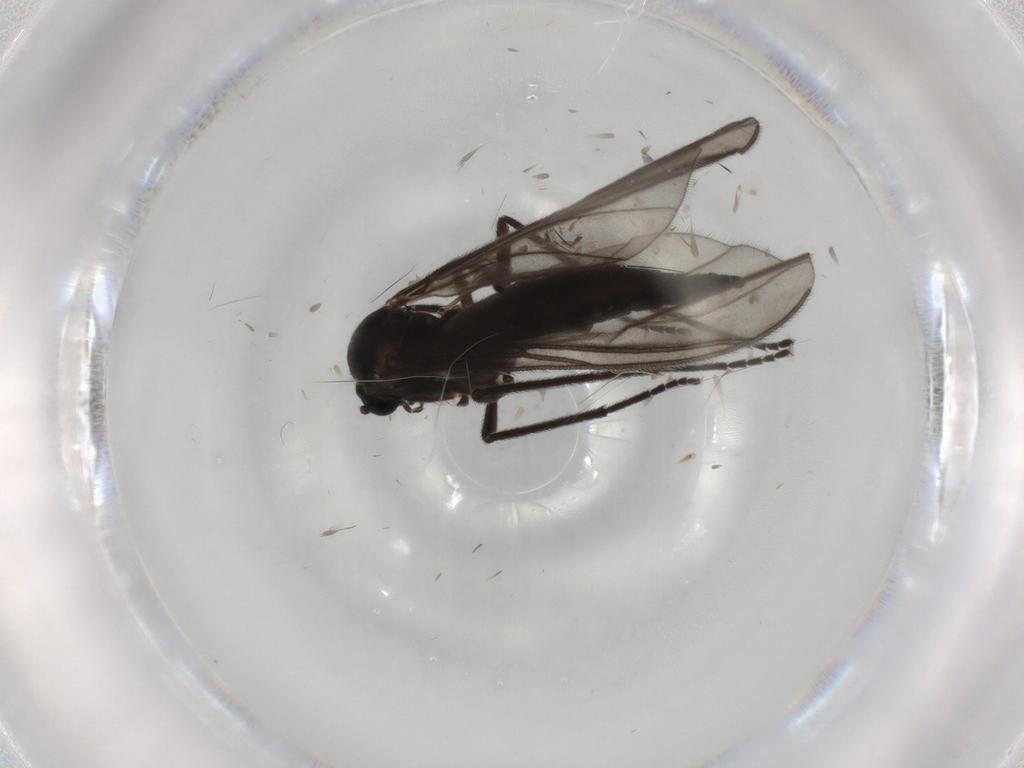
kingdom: Animalia
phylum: Arthropoda
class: Insecta
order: Diptera
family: Sciaridae
